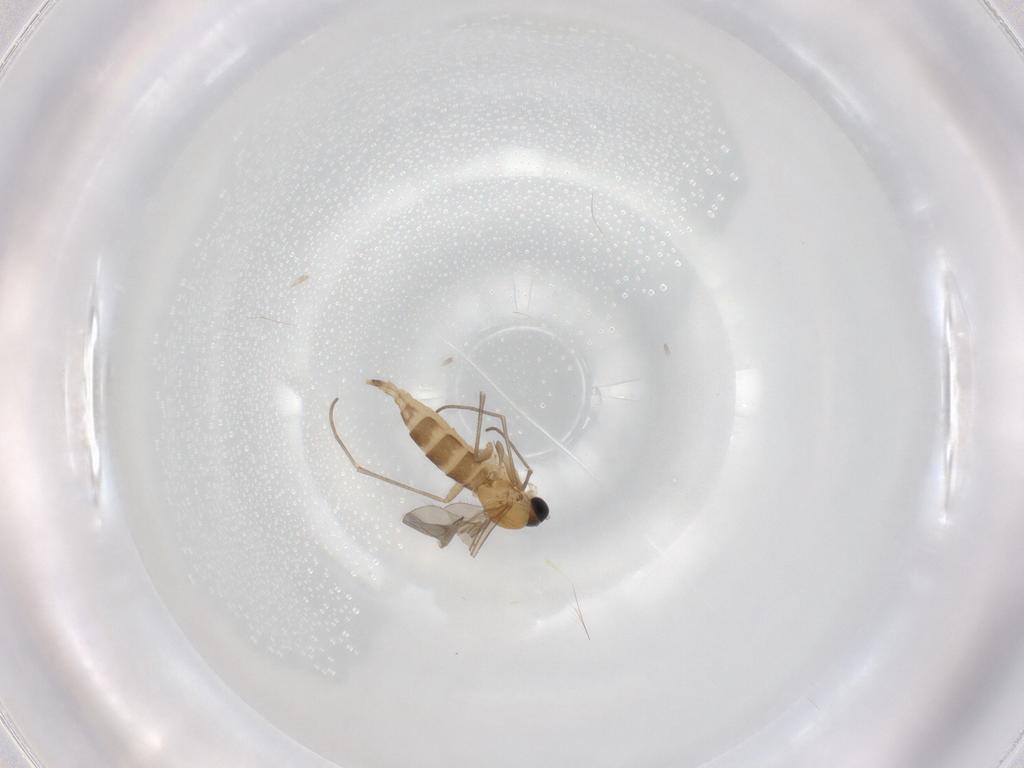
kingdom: Animalia
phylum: Arthropoda
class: Insecta
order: Diptera
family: Sciaridae
